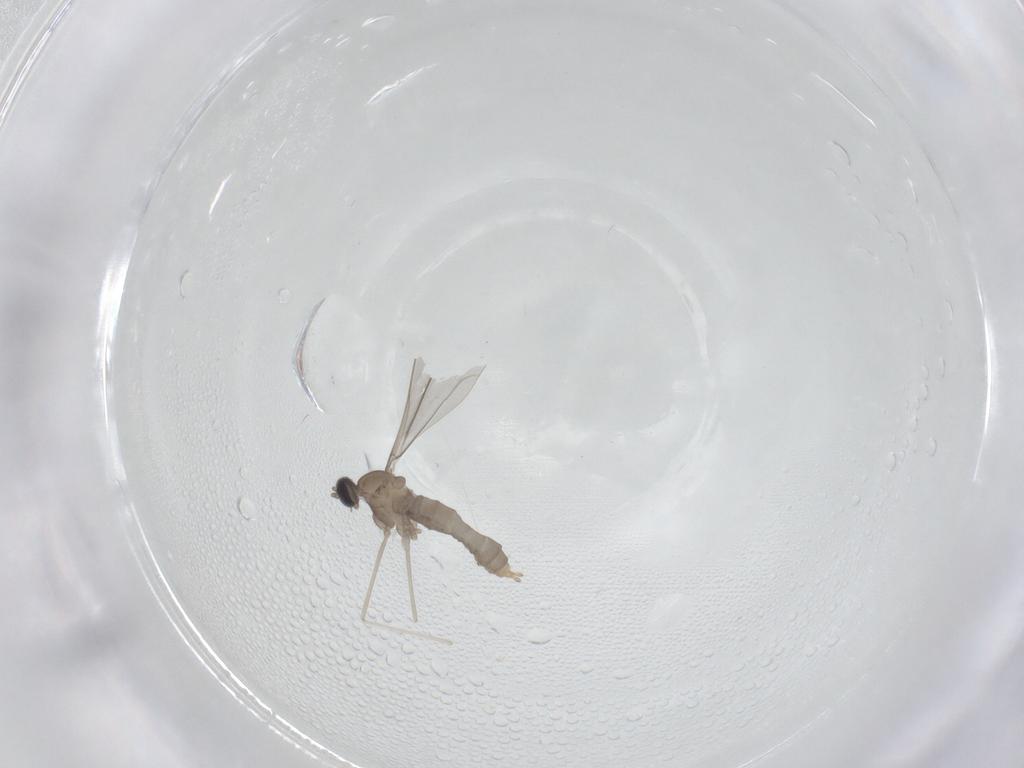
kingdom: Animalia
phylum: Arthropoda
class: Insecta
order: Diptera
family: Cecidomyiidae
